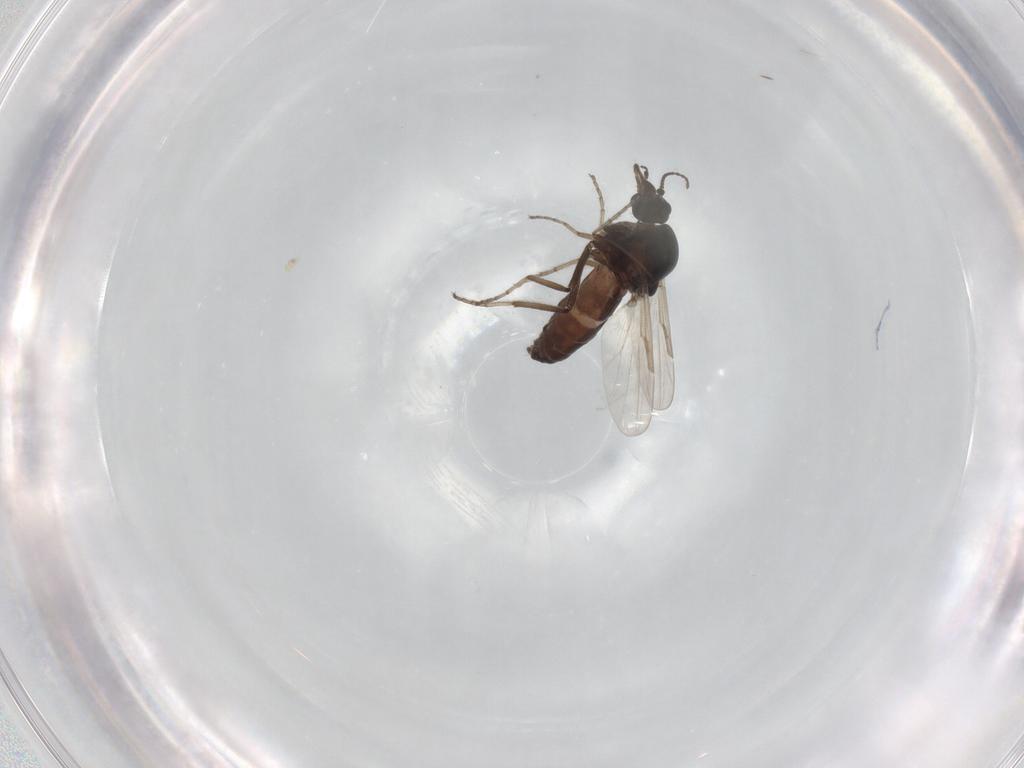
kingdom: Animalia
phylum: Arthropoda
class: Insecta
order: Diptera
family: Ceratopogonidae
